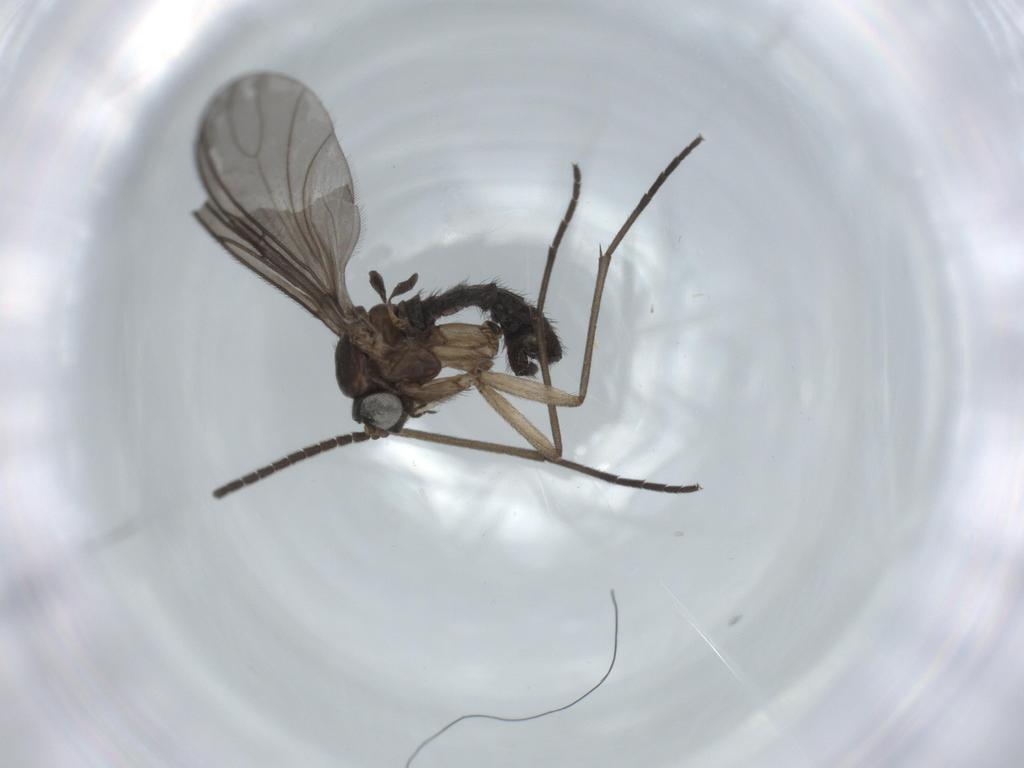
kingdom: Animalia
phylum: Arthropoda
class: Insecta
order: Diptera
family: Sciaridae
